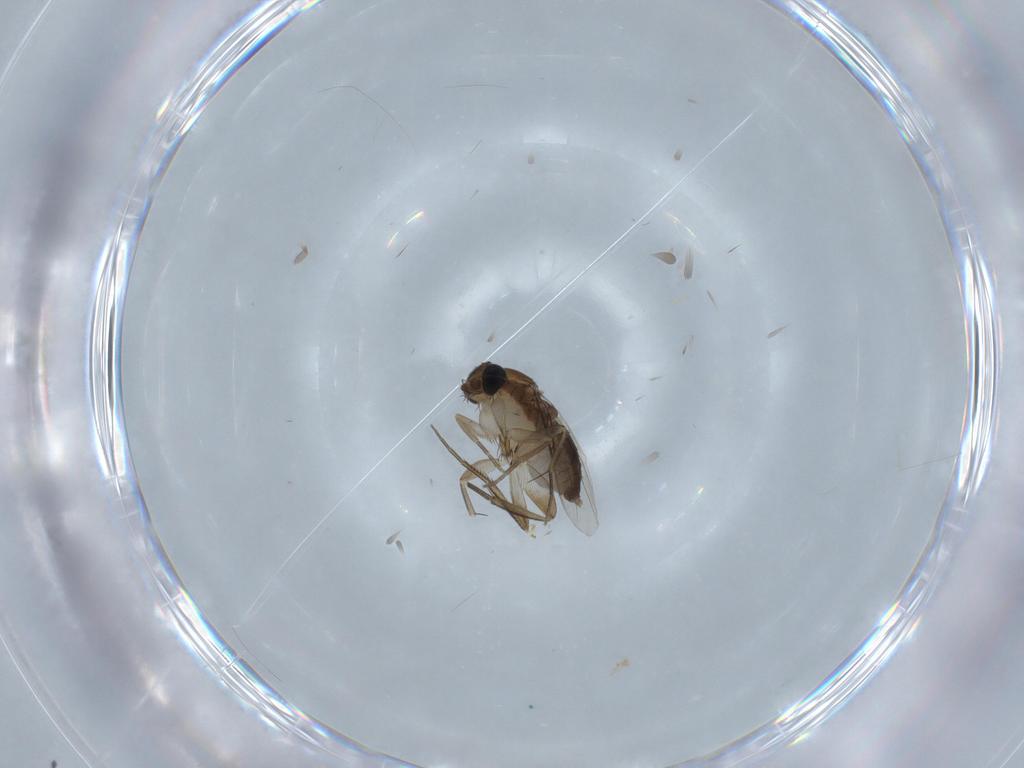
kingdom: Animalia
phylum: Arthropoda
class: Insecta
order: Diptera
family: Phoridae
